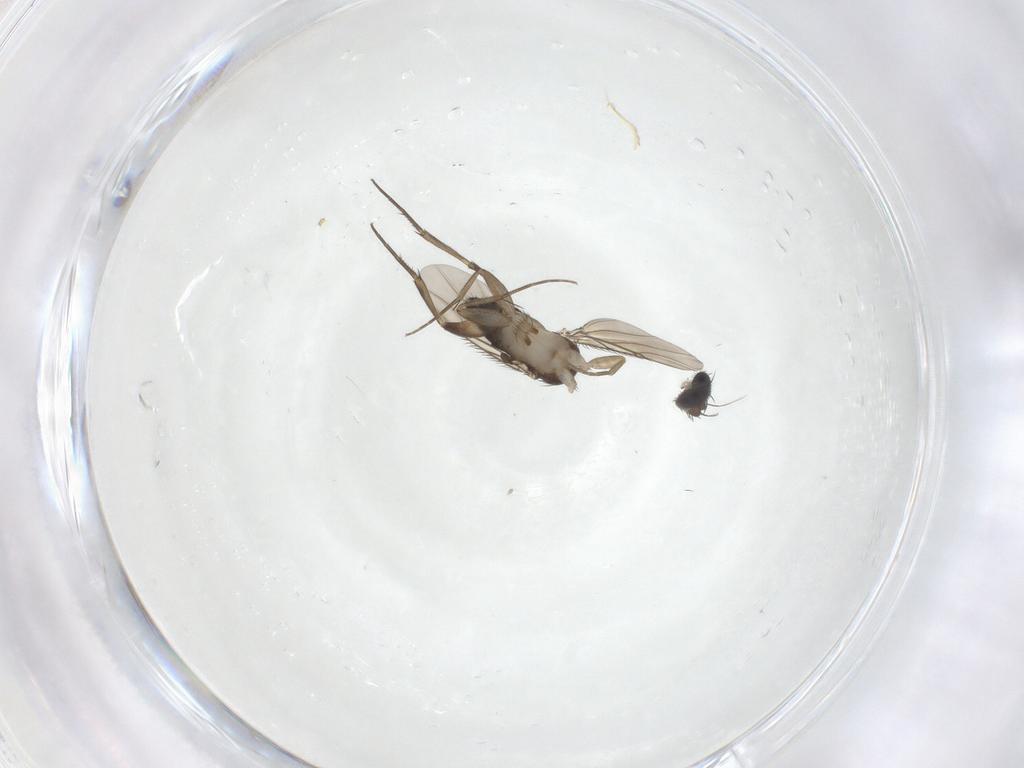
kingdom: Animalia
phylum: Arthropoda
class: Insecta
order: Diptera
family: Phoridae
